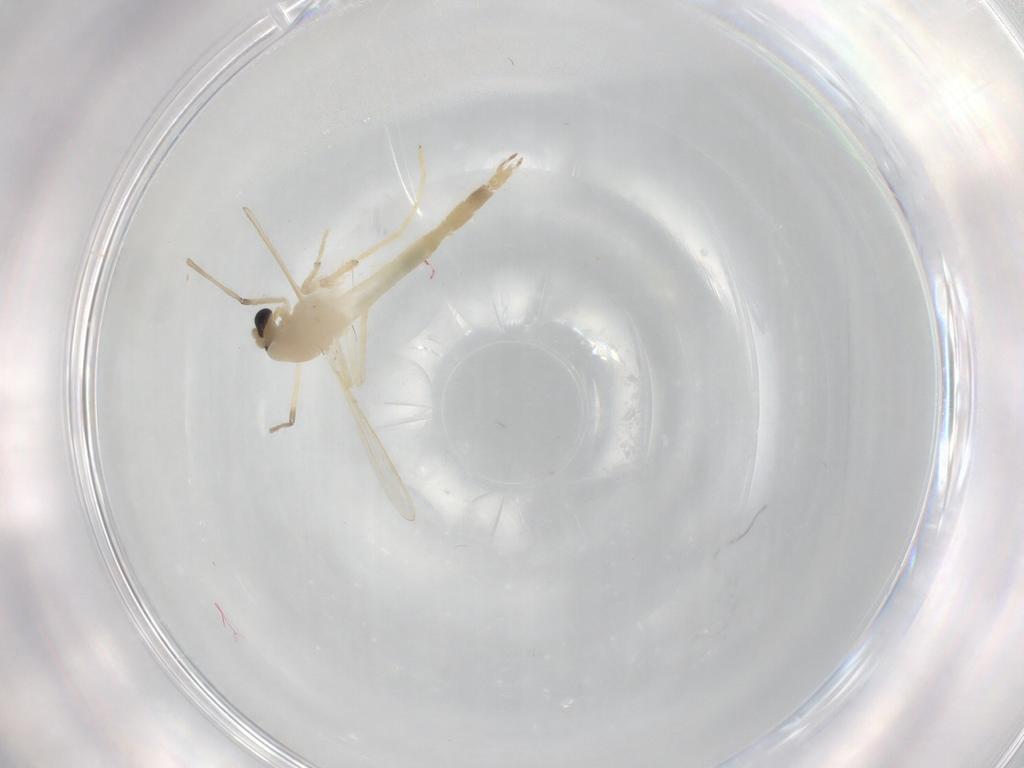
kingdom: Animalia
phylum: Arthropoda
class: Insecta
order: Diptera
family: Chironomidae
